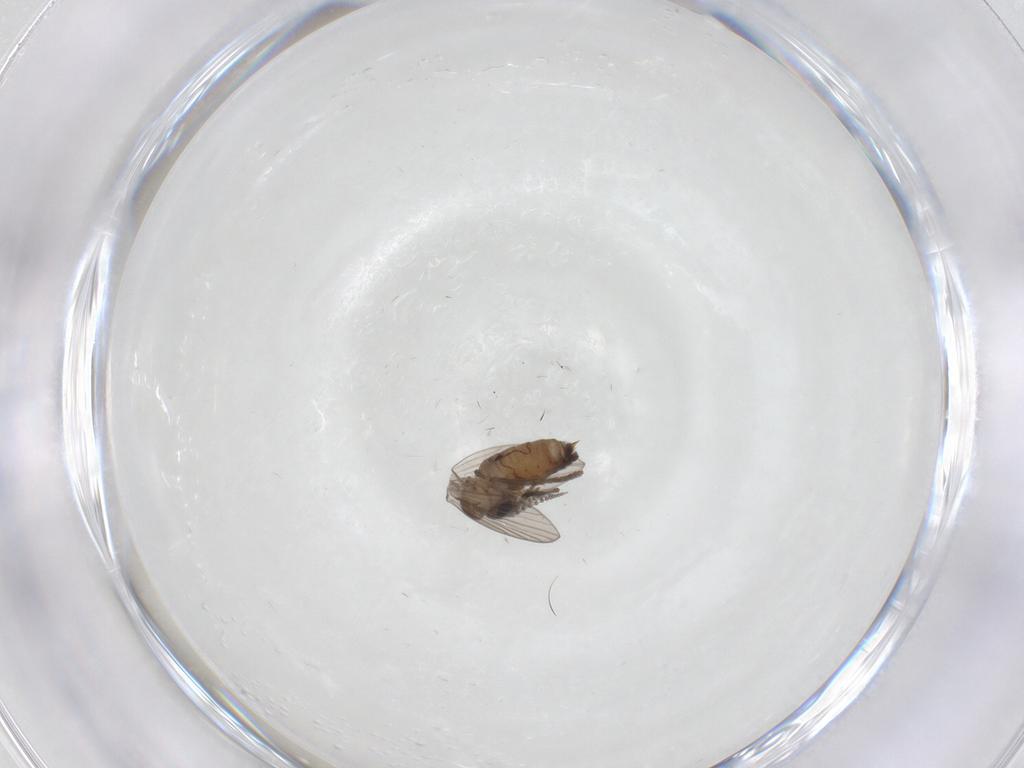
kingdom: Animalia
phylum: Arthropoda
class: Insecta
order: Diptera
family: Psychodidae
